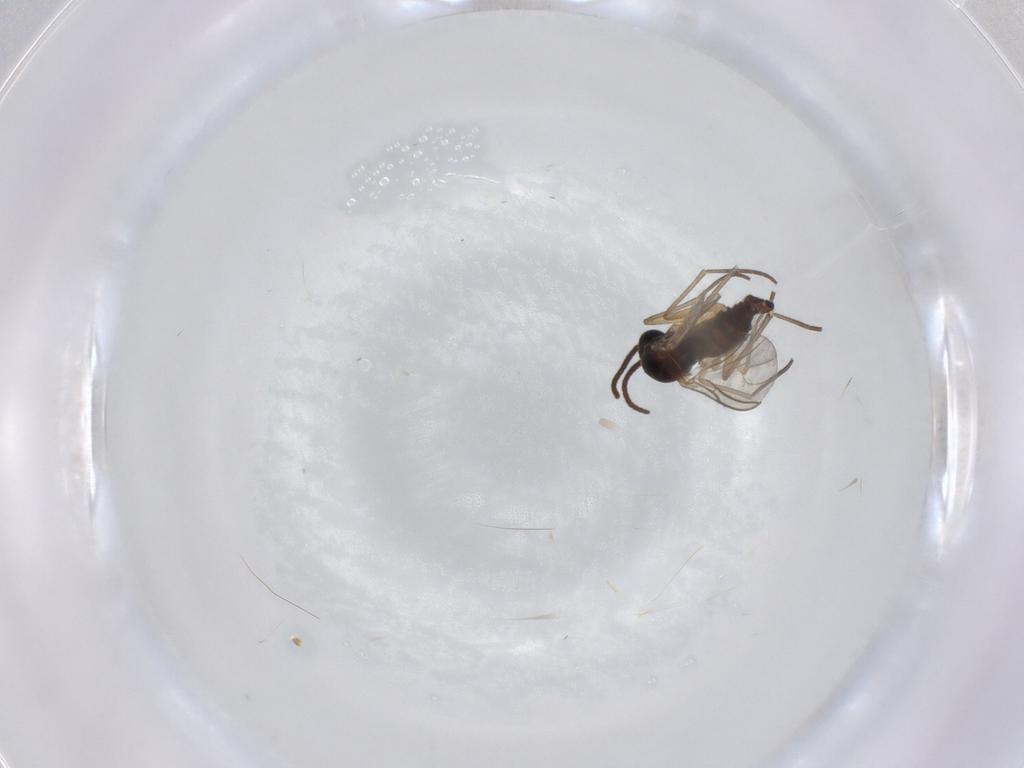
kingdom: Animalia
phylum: Arthropoda
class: Insecta
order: Diptera
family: Sciaridae
